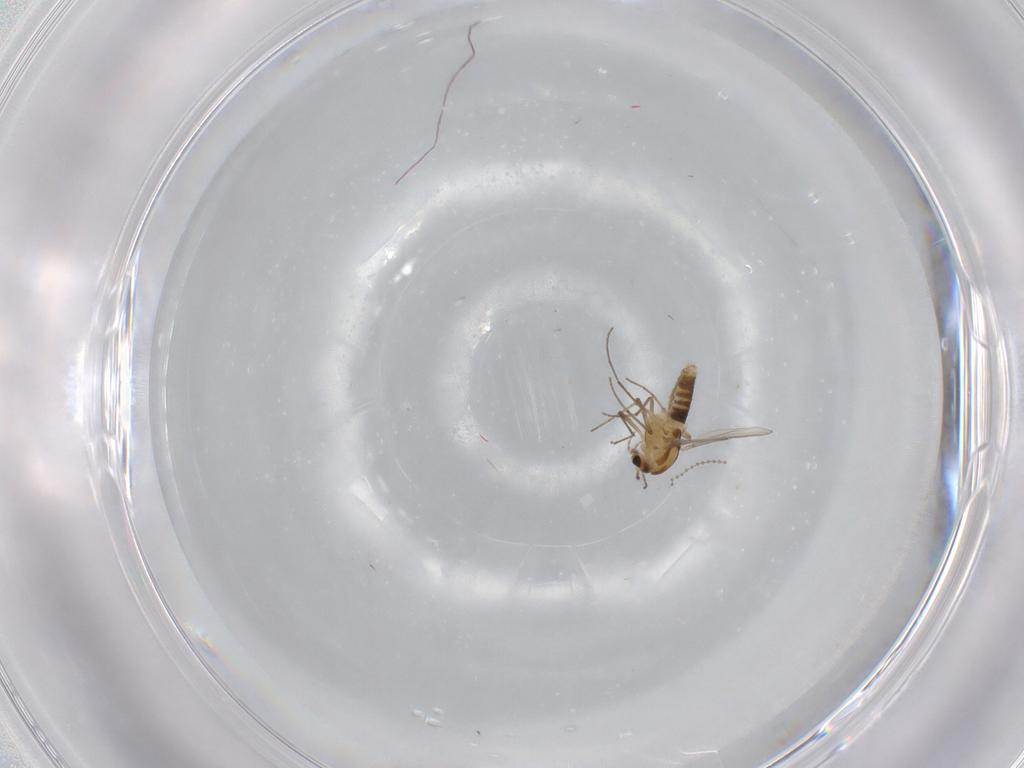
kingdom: Animalia
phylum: Arthropoda
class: Insecta
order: Diptera
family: Cecidomyiidae
